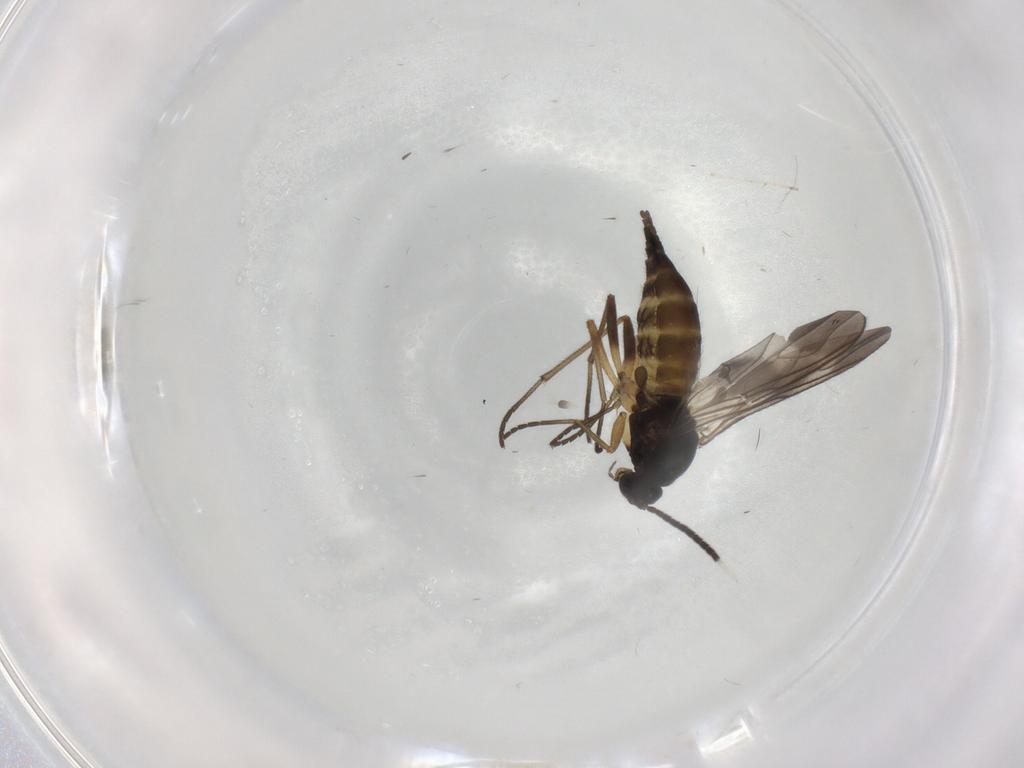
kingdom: Animalia
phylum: Arthropoda
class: Insecta
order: Diptera
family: Sciaridae
